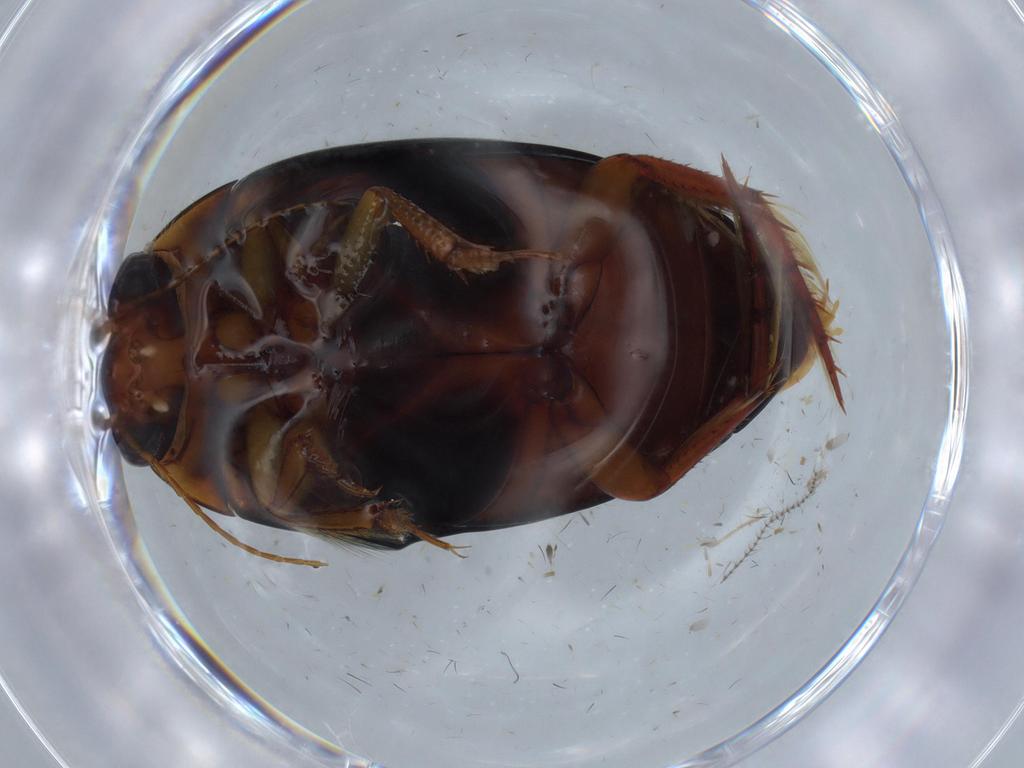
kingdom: Animalia
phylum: Arthropoda
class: Insecta
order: Coleoptera
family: Dytiscidae
